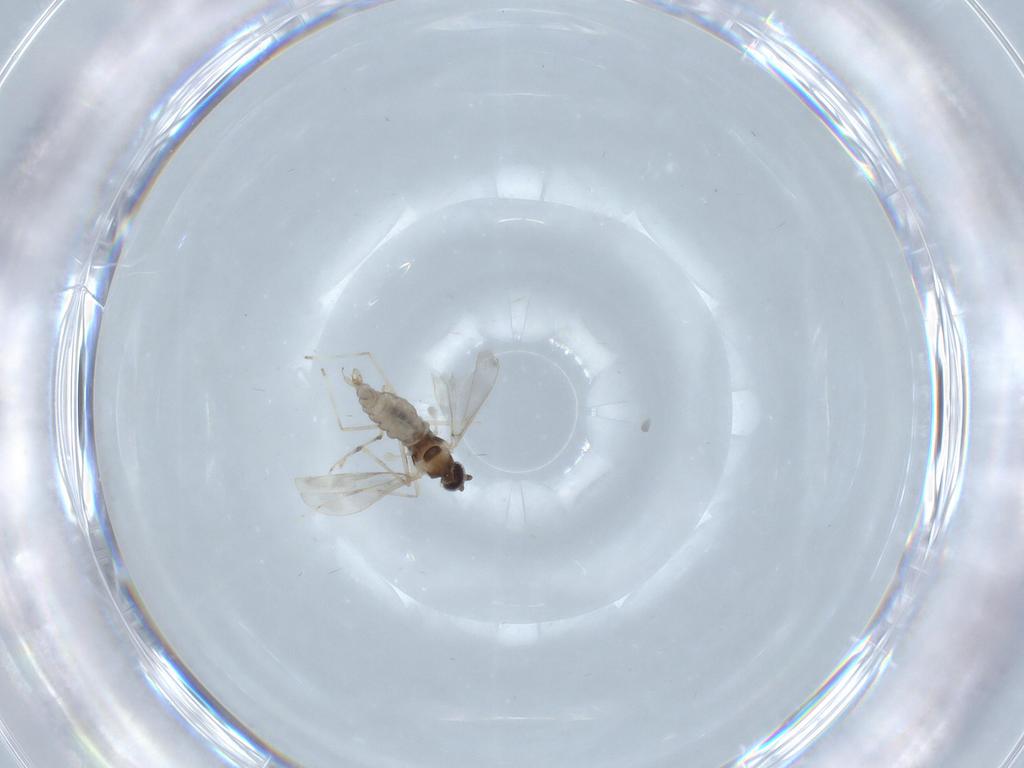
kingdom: Animalia
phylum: Arthropoda
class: Insecta
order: Diptera
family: Cecidomyiidae
